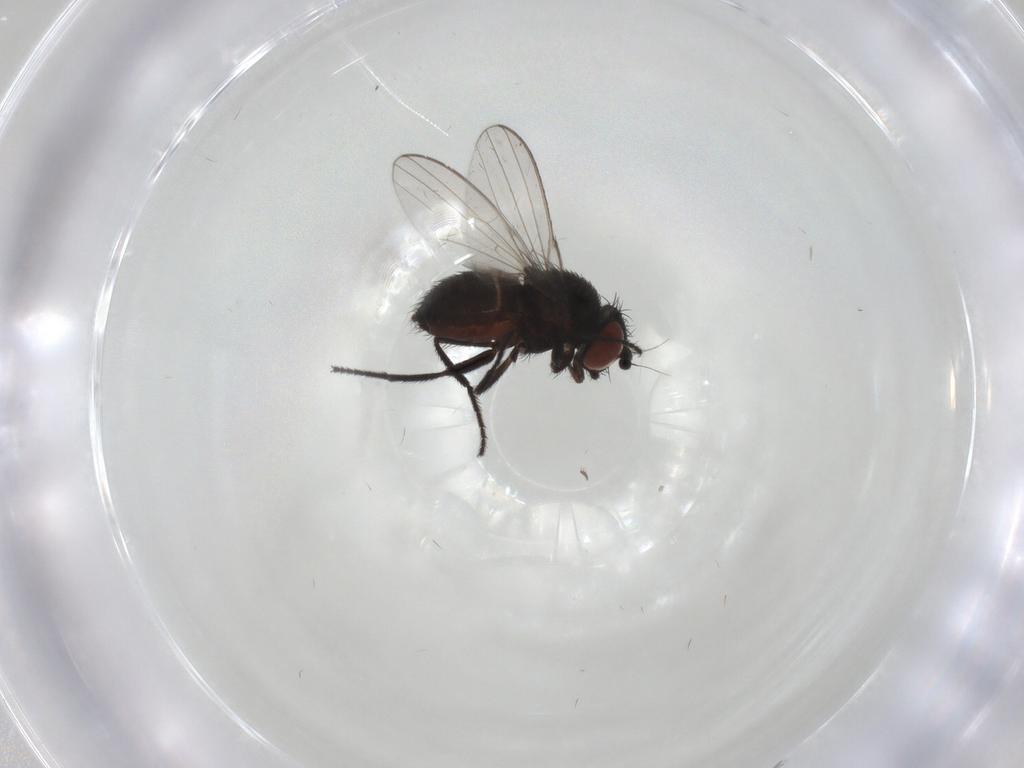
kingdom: Animalia
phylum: Arthropoda
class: Insecta
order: Diptera
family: Milichiidae
